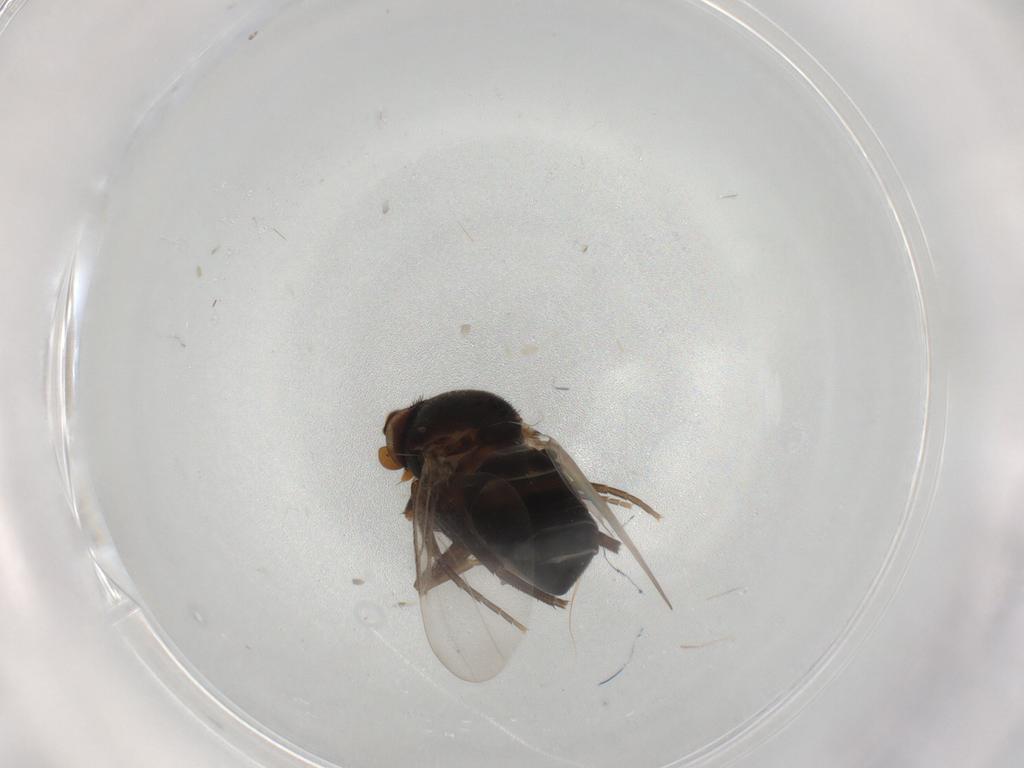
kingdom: Animalia
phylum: Arthropoda
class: Insecta
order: Diptera
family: Phoridae
